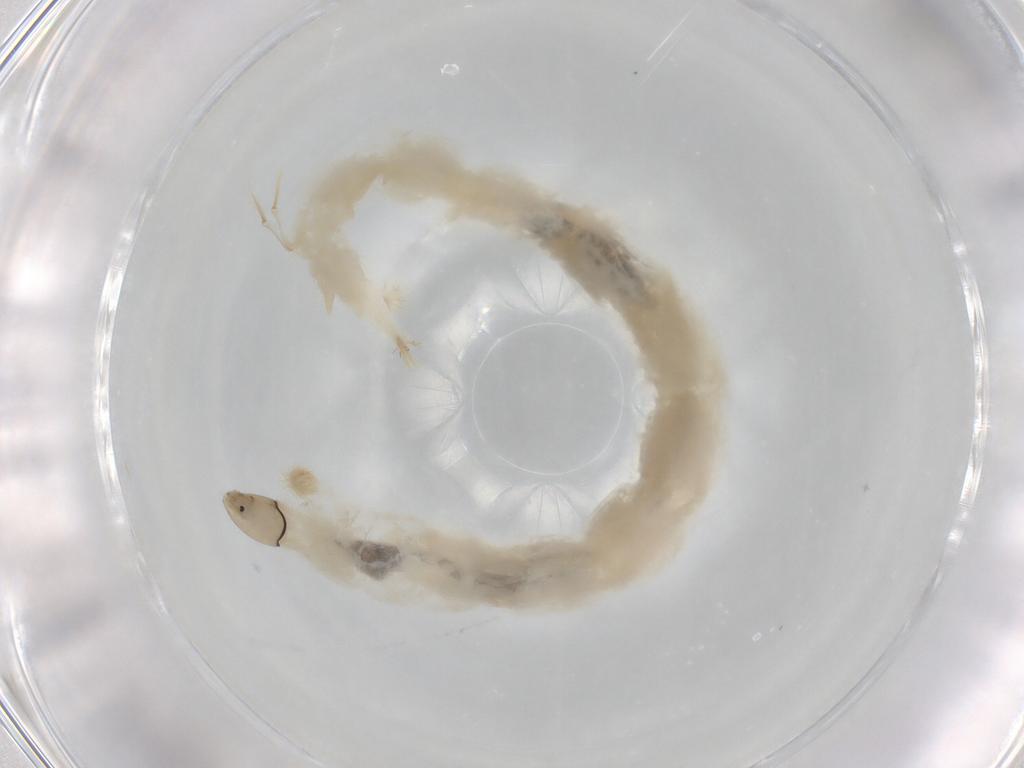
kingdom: Animalia
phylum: Arthropoda
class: Insecta
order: Diptera
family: Chironomidae
